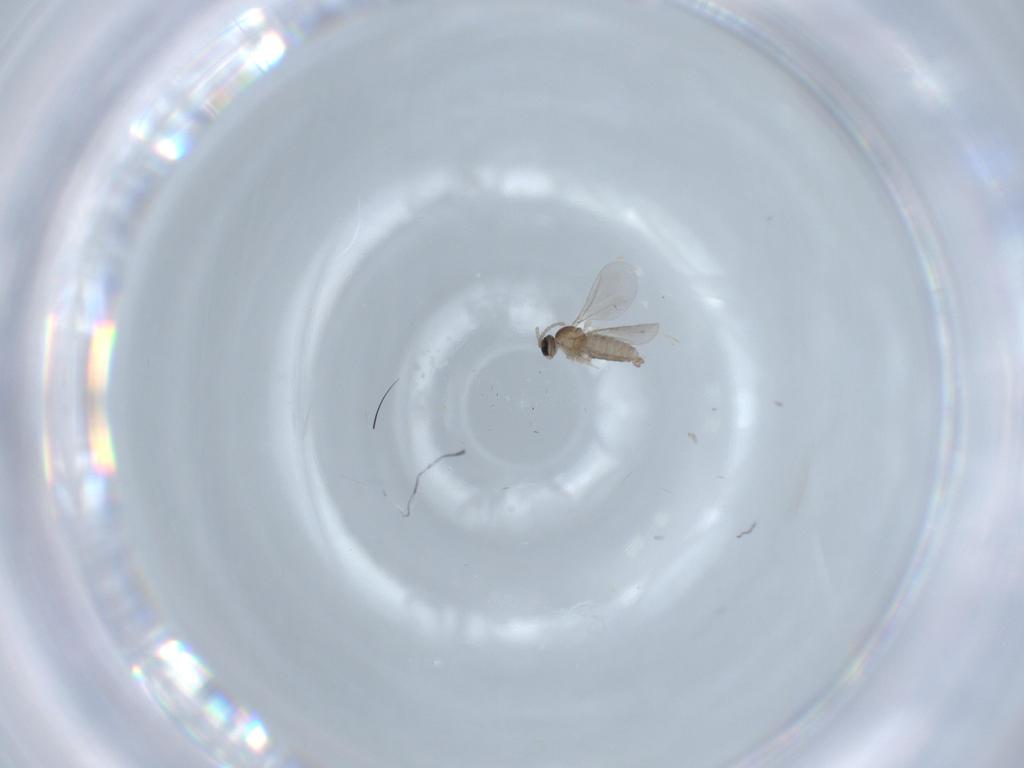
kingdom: Animalia
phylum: Arthropoda
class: Insecta
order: Diptera
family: Cecidomyiidae
